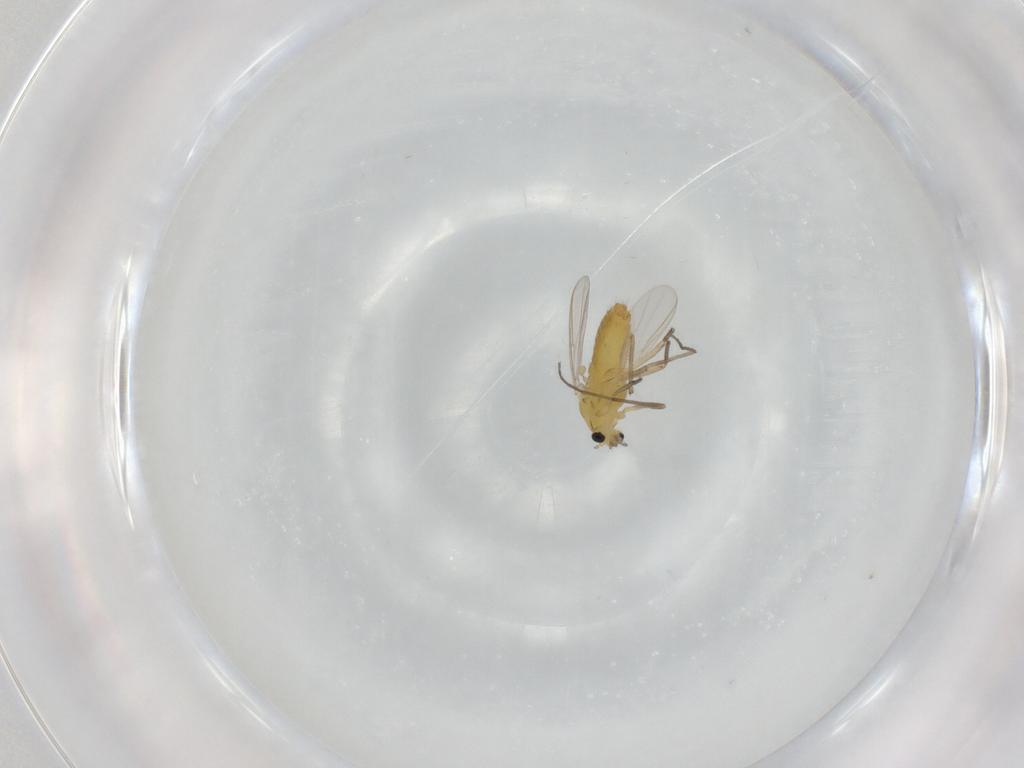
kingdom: Animalia
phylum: Arthropoda
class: Insecta
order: Diptera
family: Chironomidae
